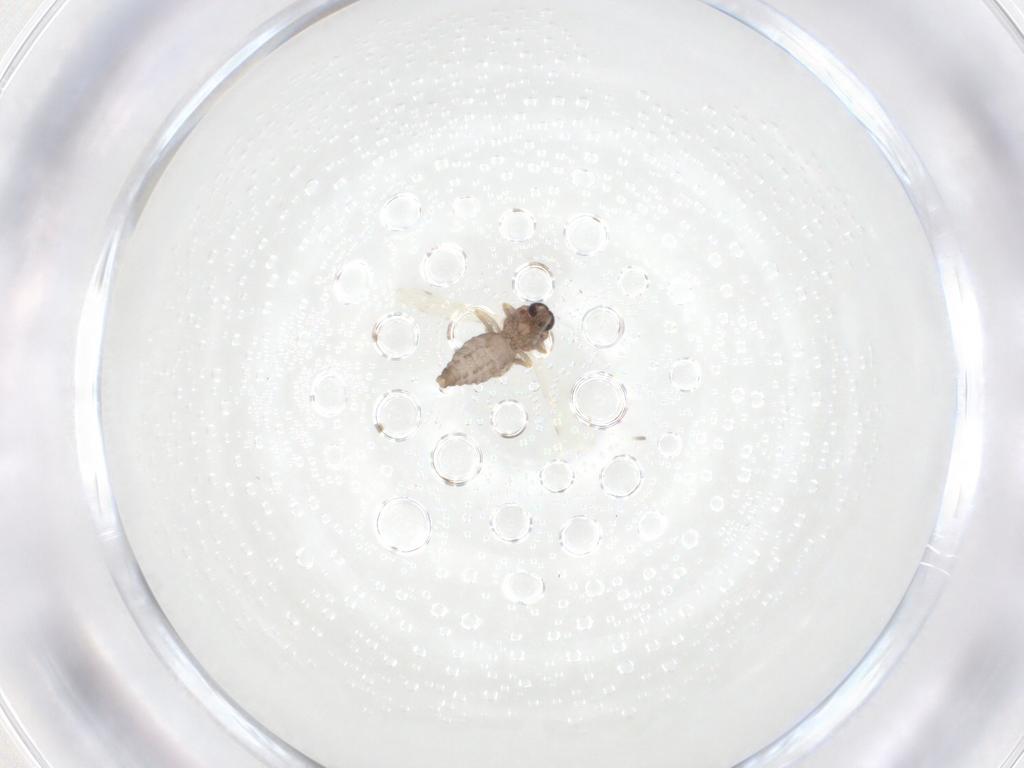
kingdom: Animalia
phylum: Arthropoda
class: Insecta
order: Diptera
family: Ceratopogonidae
